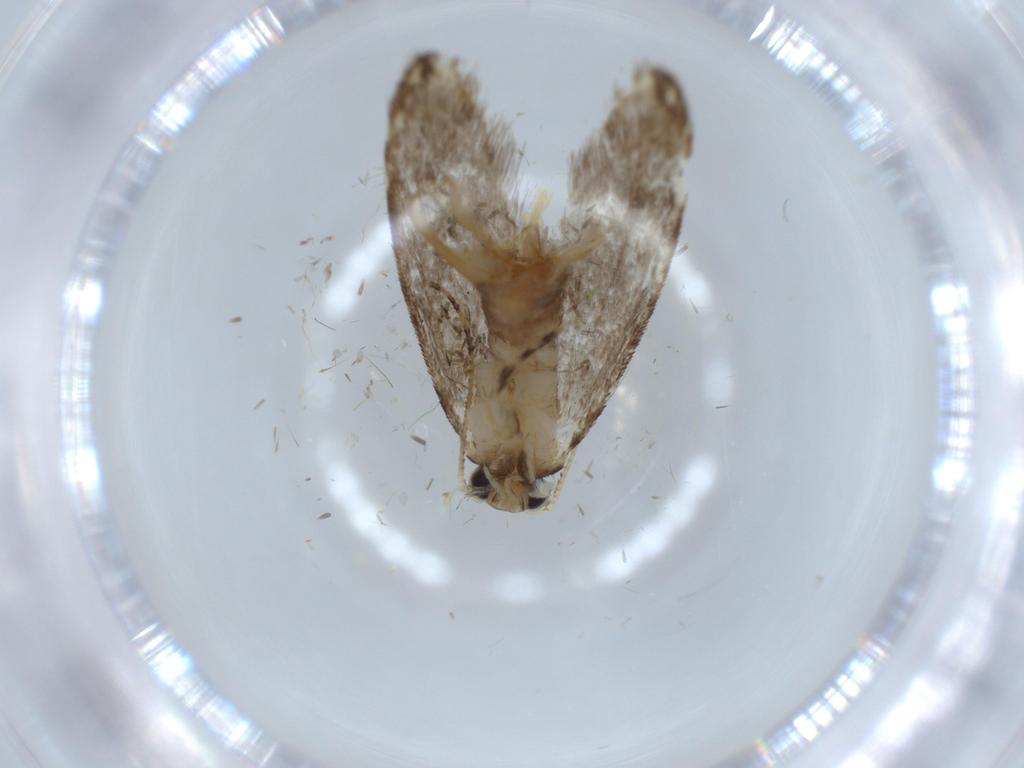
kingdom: Animalia
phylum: Arthropoda
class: Insecta
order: Lepidoptera
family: Tineidae
